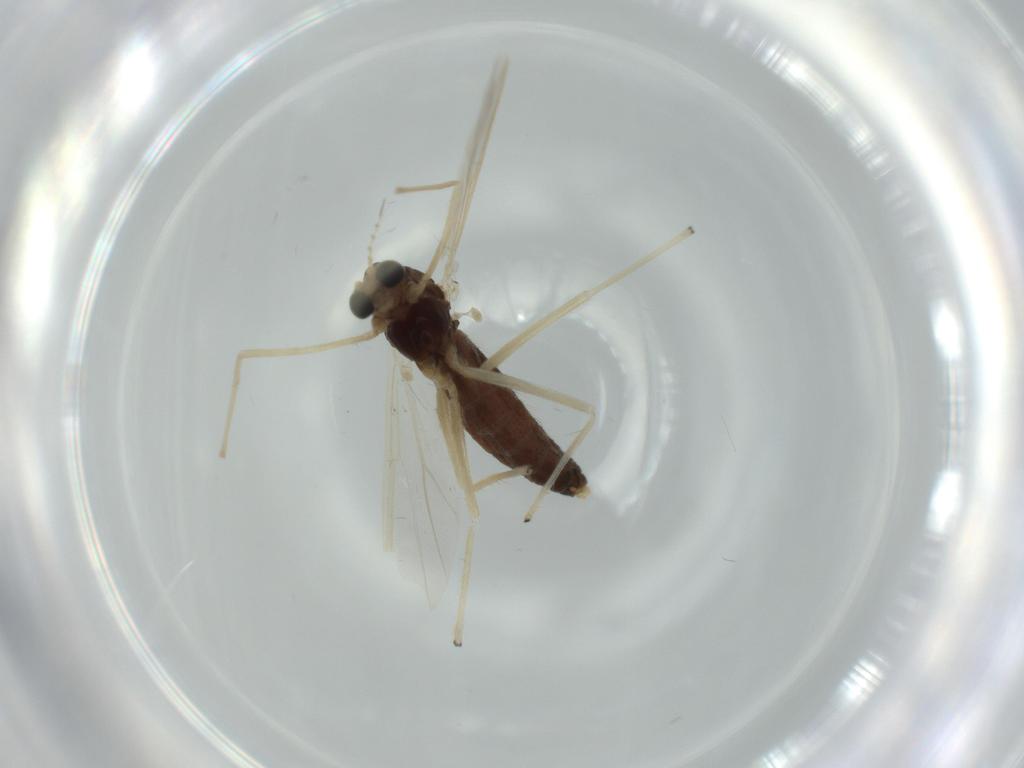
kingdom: Animalia
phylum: Arthropoda
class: Insecta
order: Diptera
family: Chironomidae
